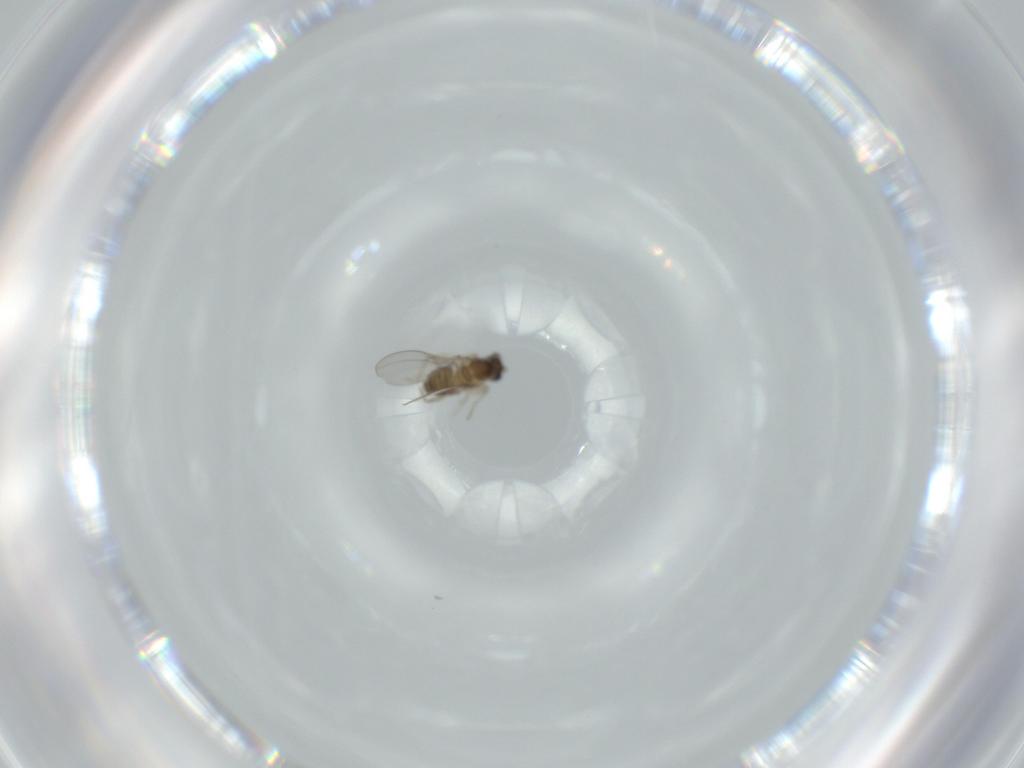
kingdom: Animalia
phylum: Arthropoda
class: Insecta
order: Diptera
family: Cecidomyiidae
